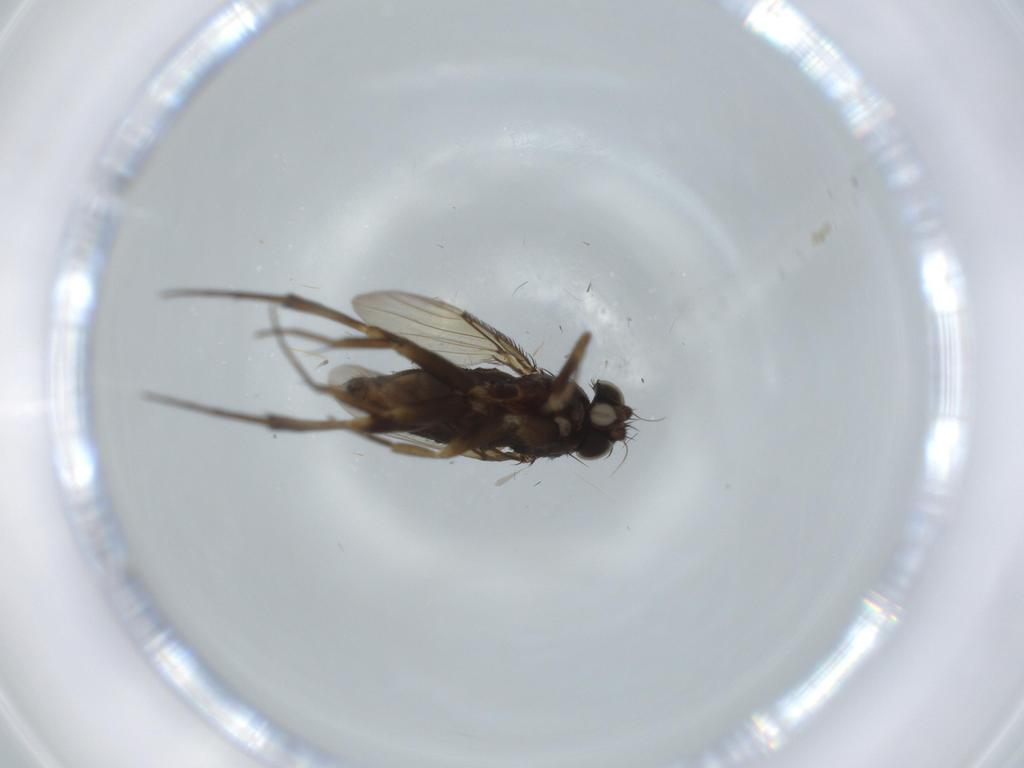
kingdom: Animalia
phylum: Arthropoda
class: Insecta
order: Diptera
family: Phoridae
